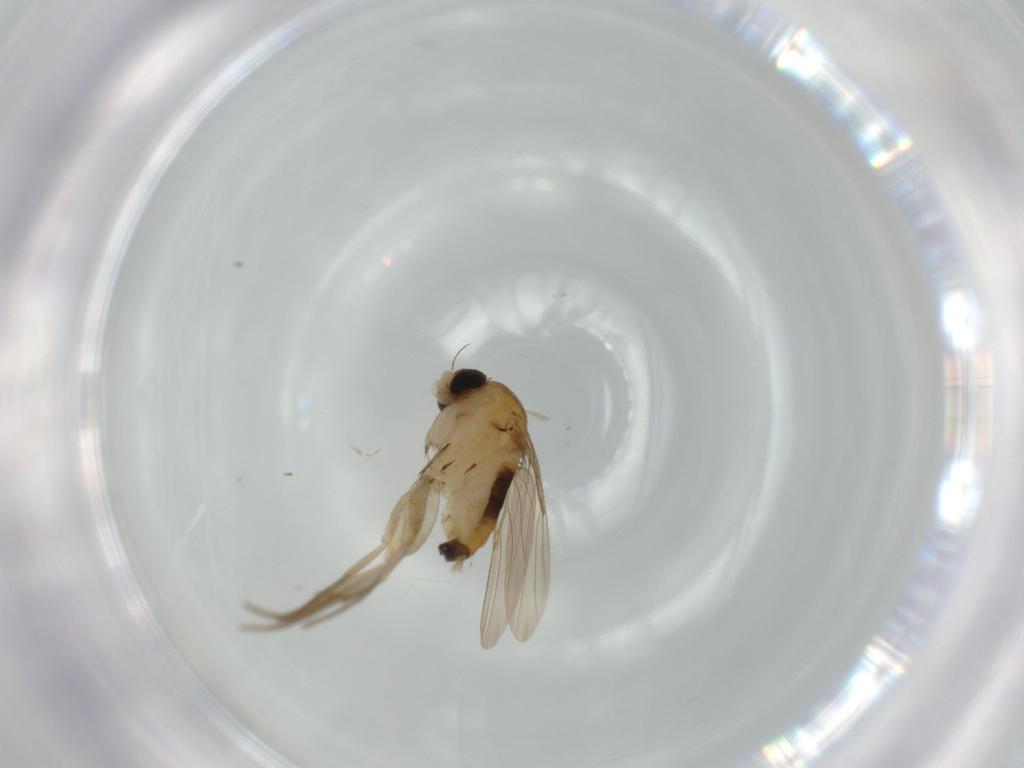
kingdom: Animalia
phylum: Arthropoda
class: Insecta
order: Diptera
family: Phoridae
